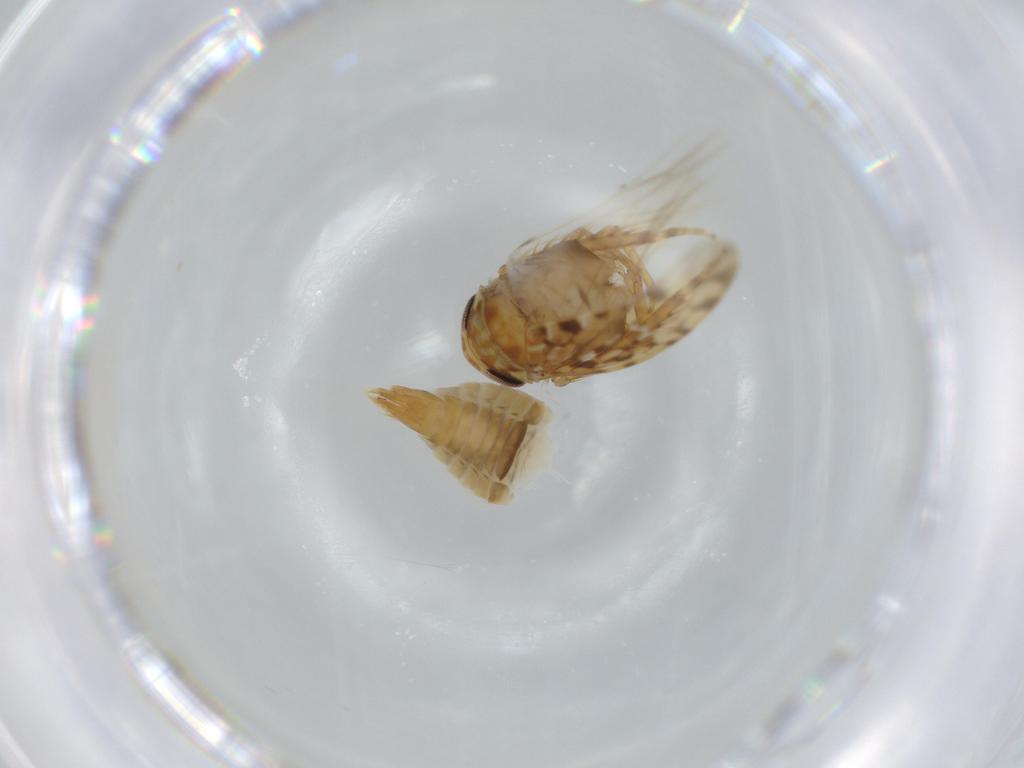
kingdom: Animalia
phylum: Arthropoda
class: Insecta
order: Hemiptera
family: Cicadellidae
